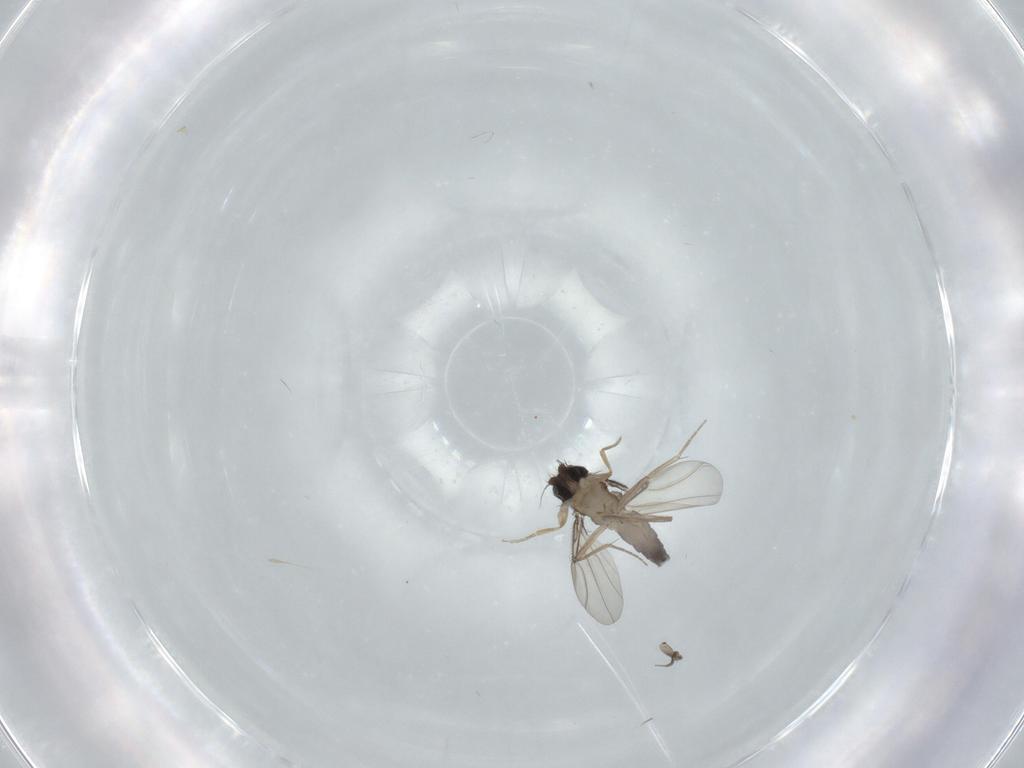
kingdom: Animalia
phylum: Arthropoda
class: Insecta
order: Diptera
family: Phoridae
